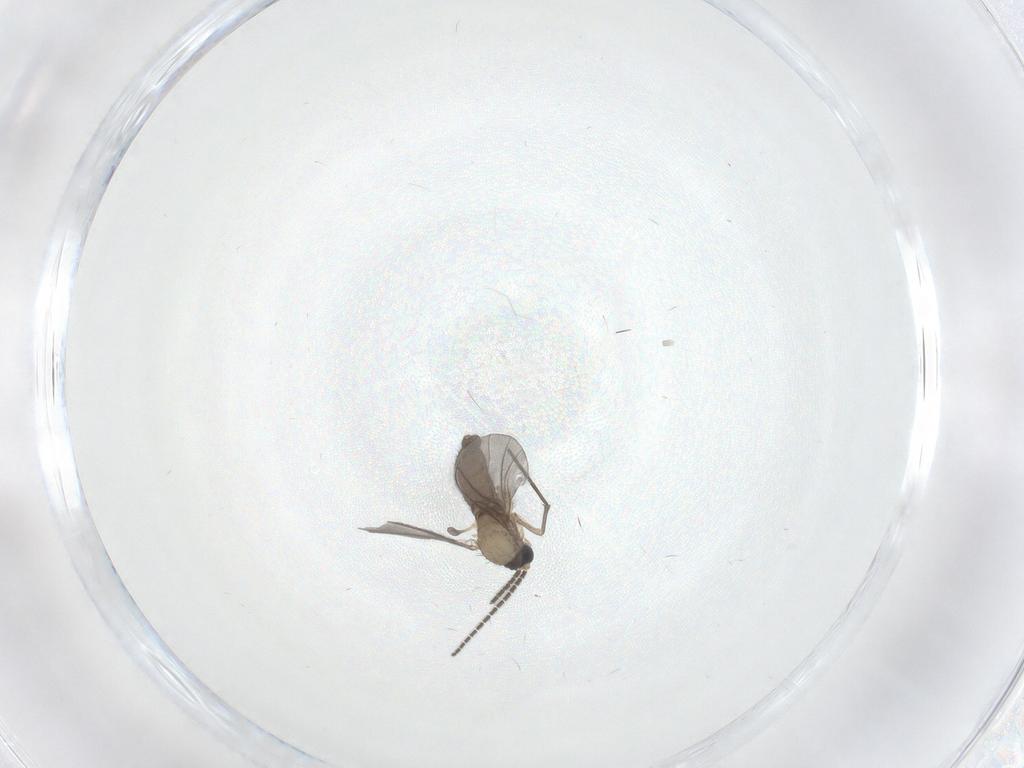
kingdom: Animalia
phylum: Arthropoda
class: Insecta
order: Diptera
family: Sciaridae
